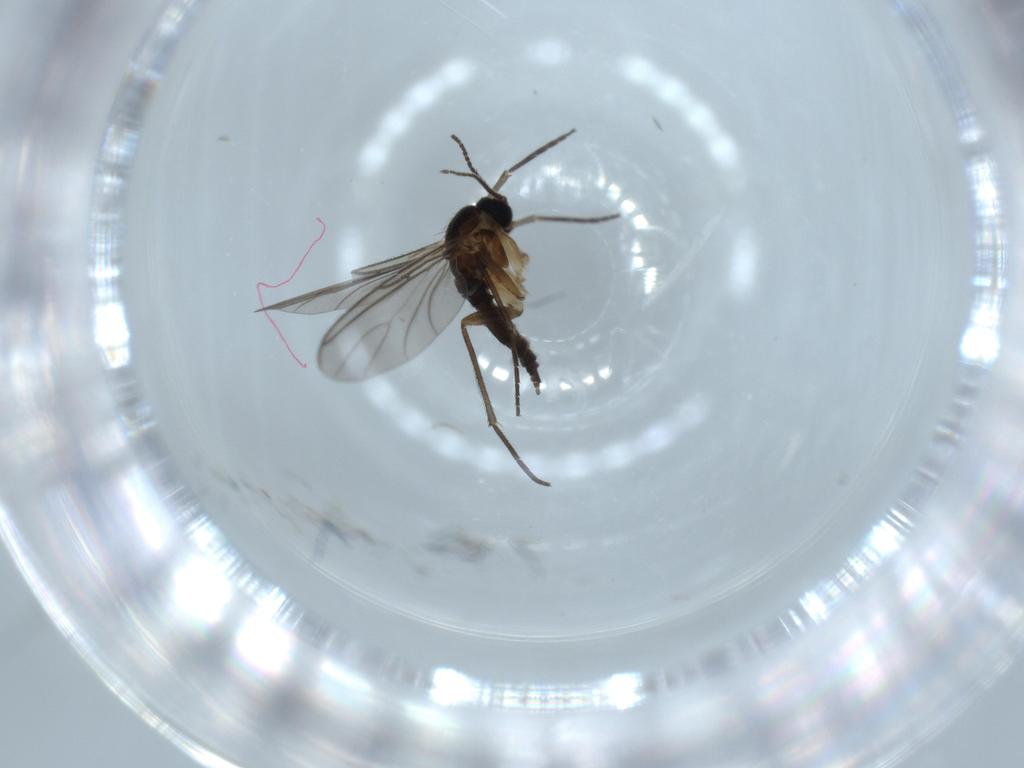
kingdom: Animalia
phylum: Arthropoda
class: Insecta
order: Diptera
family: Sciaridae
